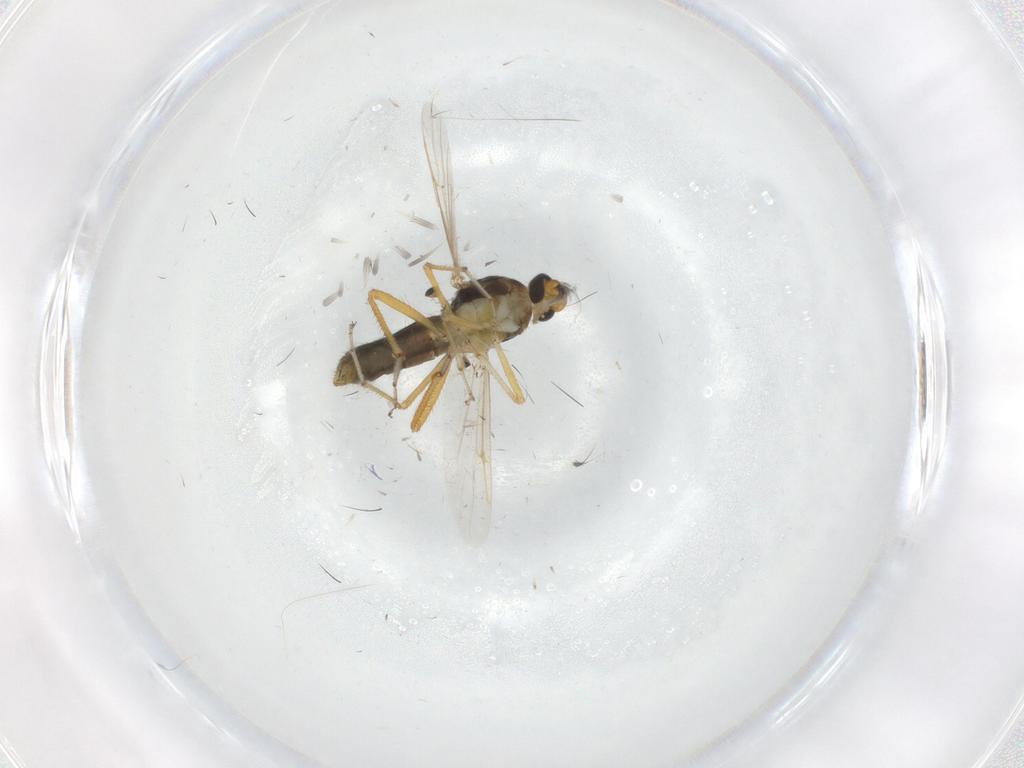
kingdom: Animalia
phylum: Arthropoda
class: Insecta
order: Diptera
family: Ceratopogonidae
